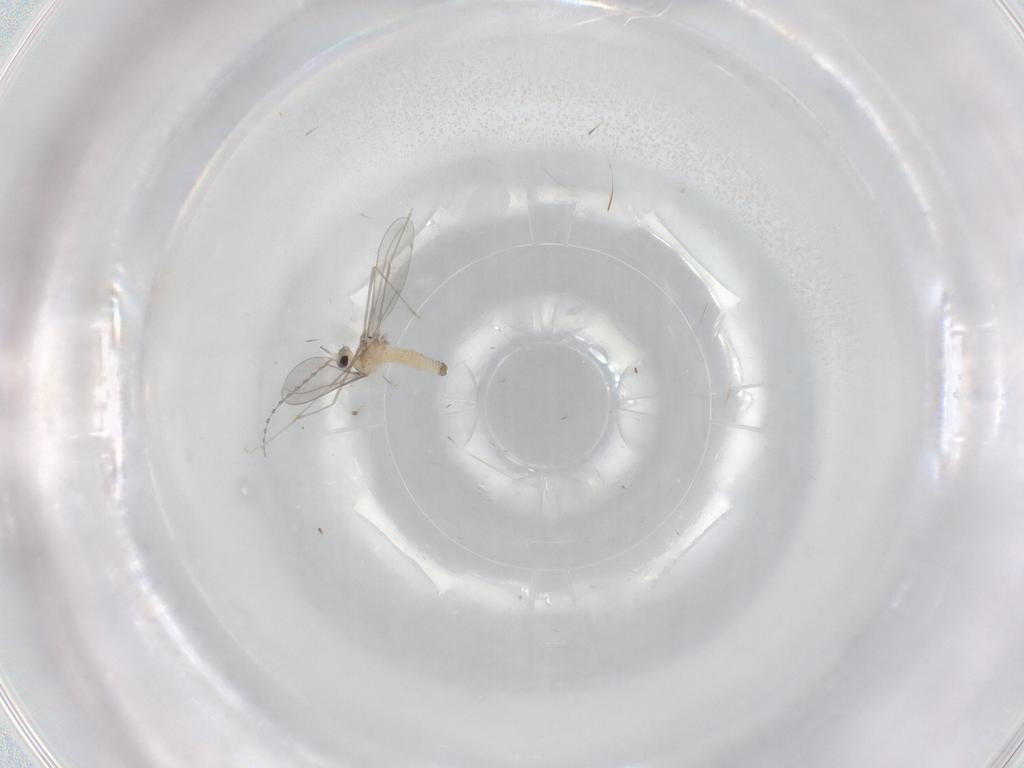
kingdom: Animalia
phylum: Arthropoda
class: Insecta
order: Diptera
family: Cecidomyiidae
